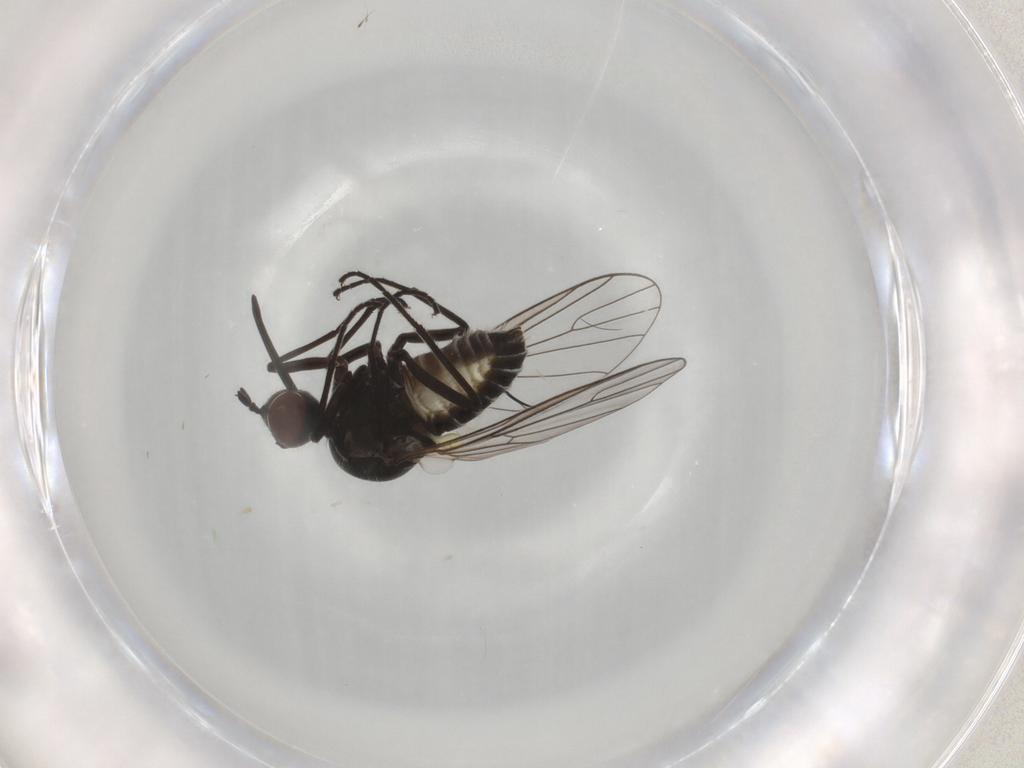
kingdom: Animalia
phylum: Arthropoda
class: Insecta
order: Diptera
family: Bombyliidae
